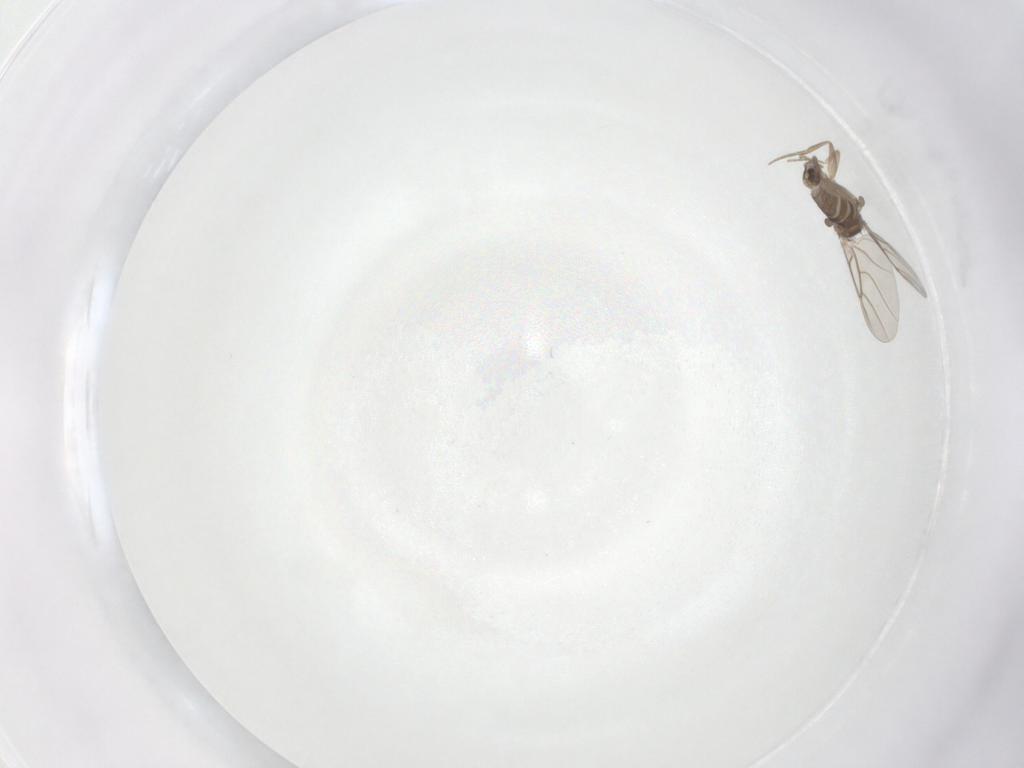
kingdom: Animalia
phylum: Arthropoda
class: Insecta
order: Diptera
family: Phoridae
